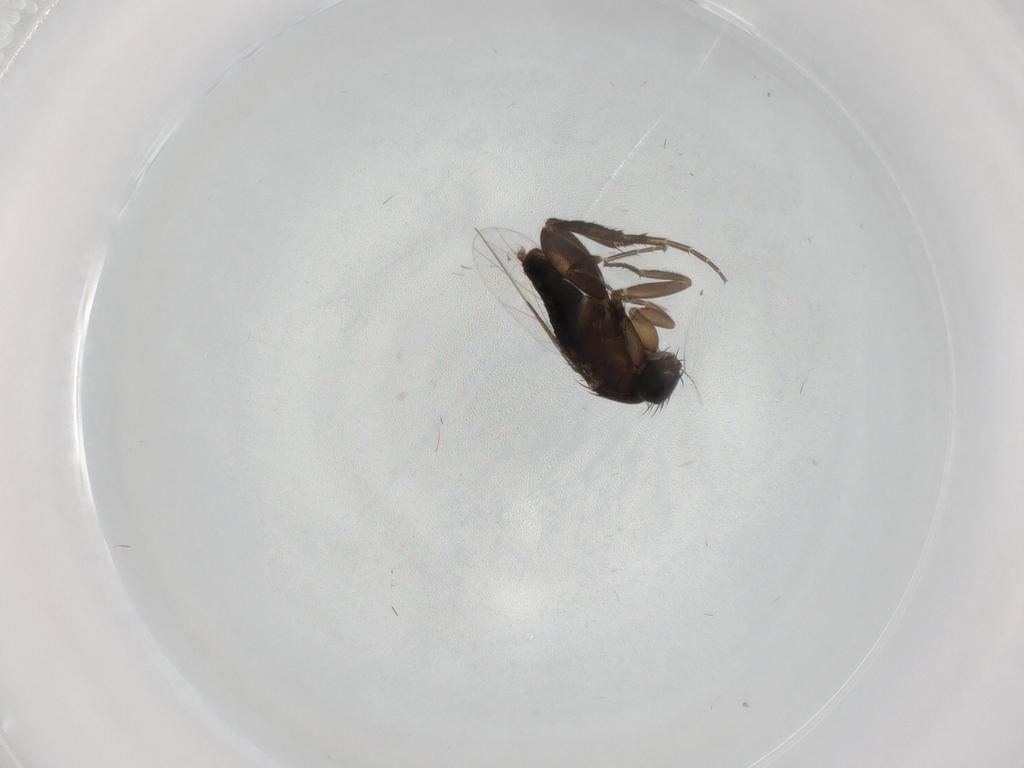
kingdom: Animalia
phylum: Arthropoda
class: Insecta
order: Diptera
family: Phoridae
